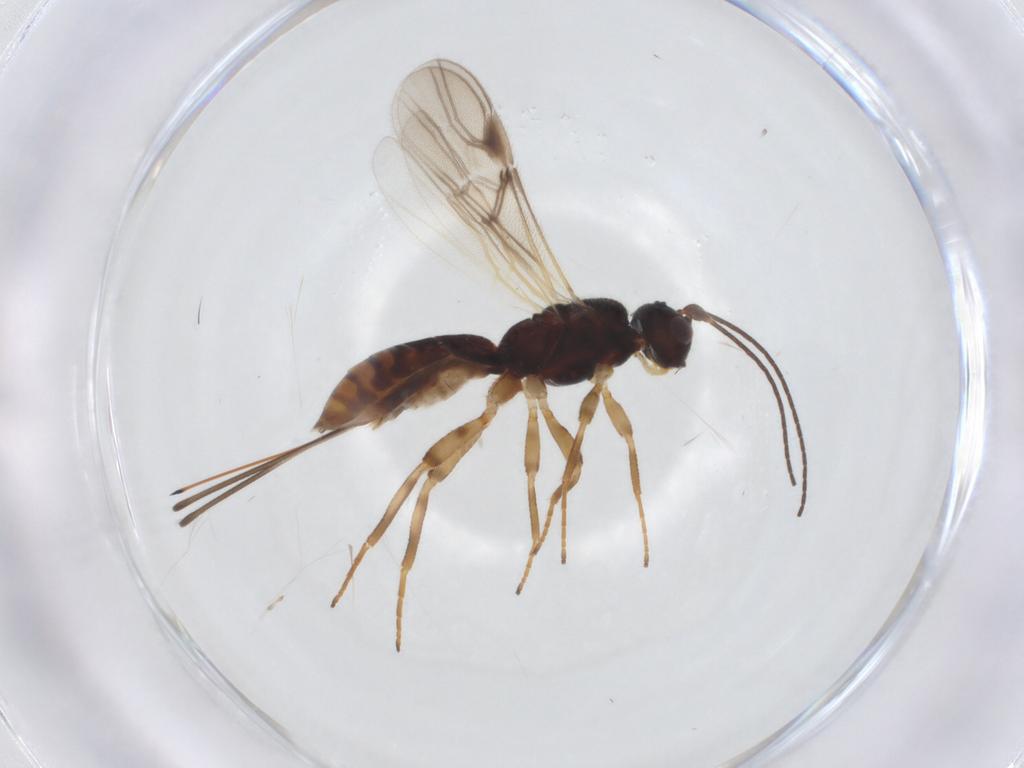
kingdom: Animalia
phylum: Arthropoda
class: Insecta
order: Hymenoptera
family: Braconidae
